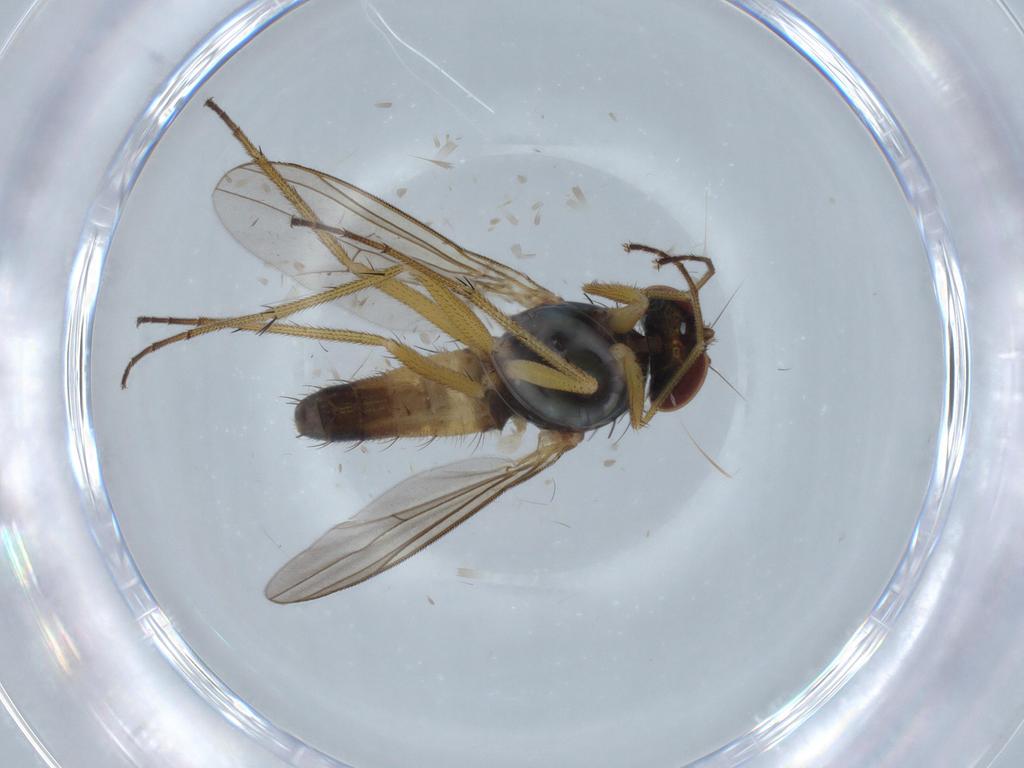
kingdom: Animalia
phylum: Arthropoda
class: Insecta
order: Diptera
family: Ceratopogonidae
